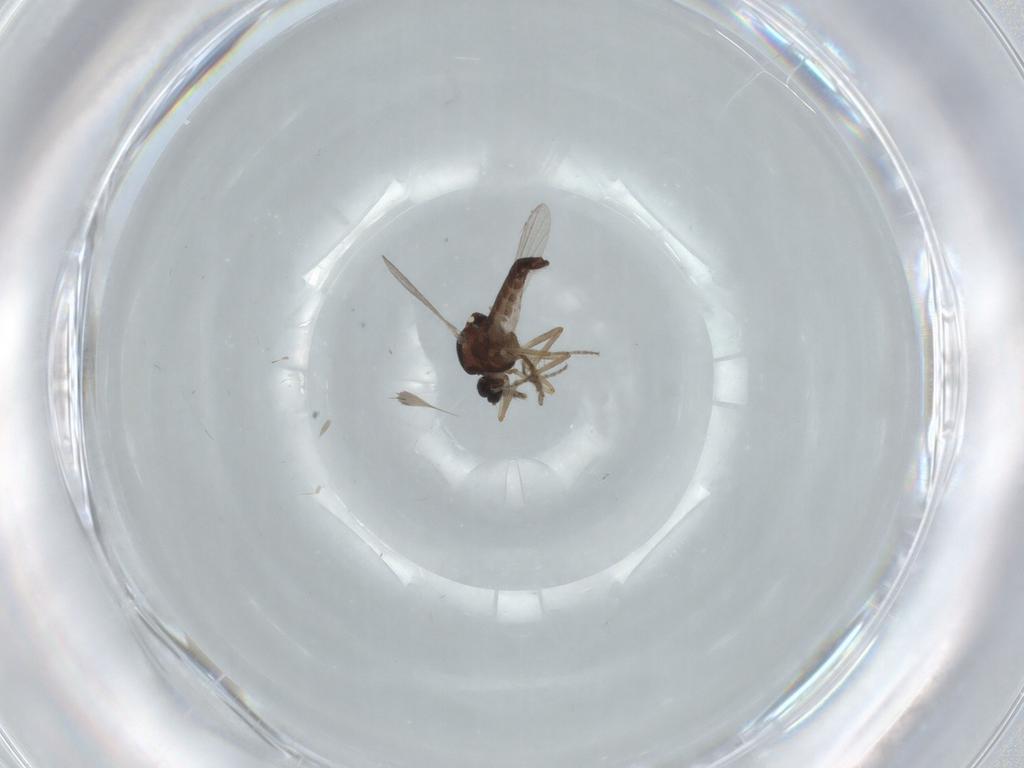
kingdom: Animalia
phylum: Arthropoda
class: Insecta
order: Diptera
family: Ceratopogonidae
